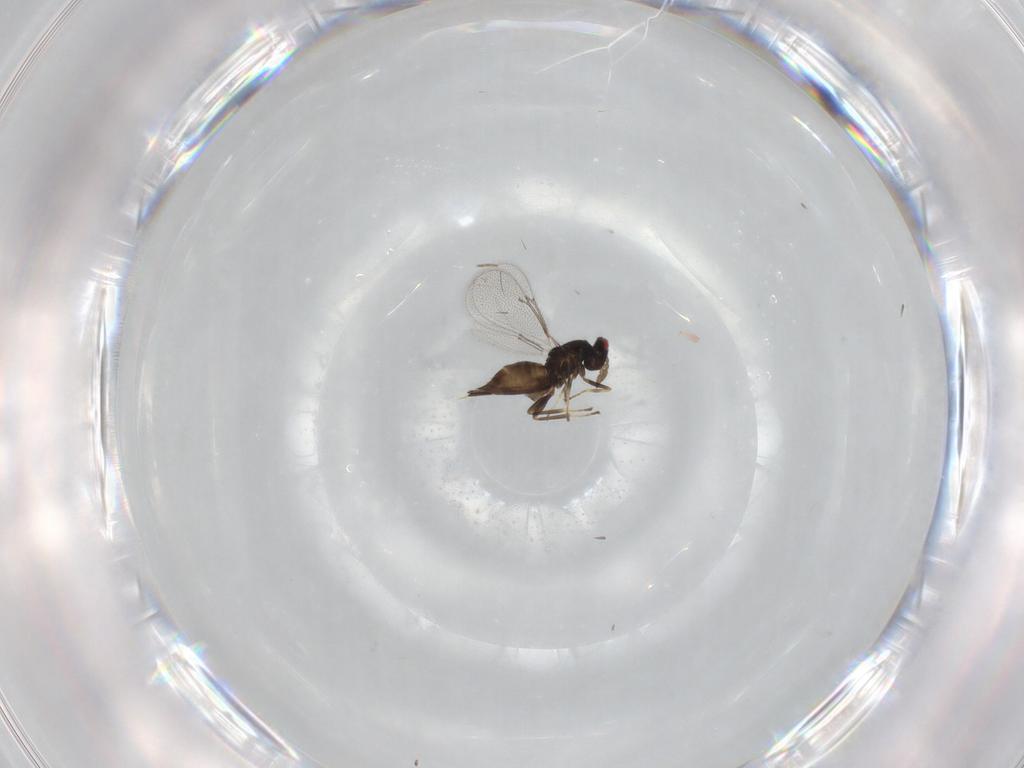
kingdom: Animalia
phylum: Arthropoda
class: Insecta
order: Hymenoptera
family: Eulophidae
